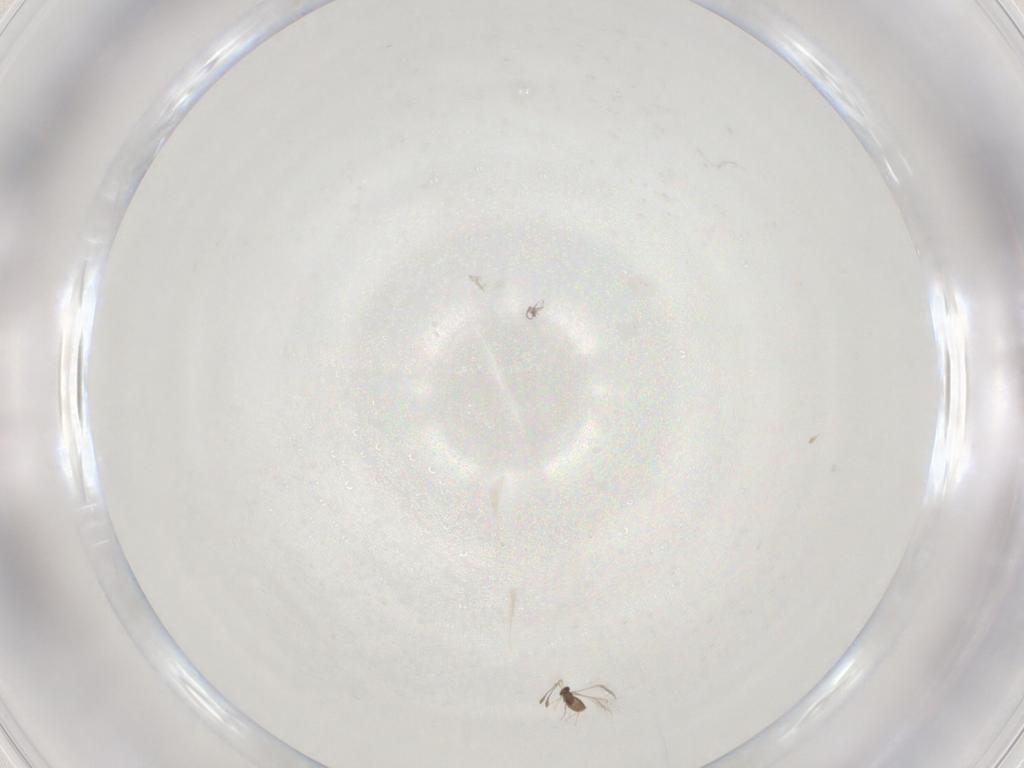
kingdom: Animalia
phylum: Arthropoda
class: Insecta
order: Hymenoptera
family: Mymaridae
